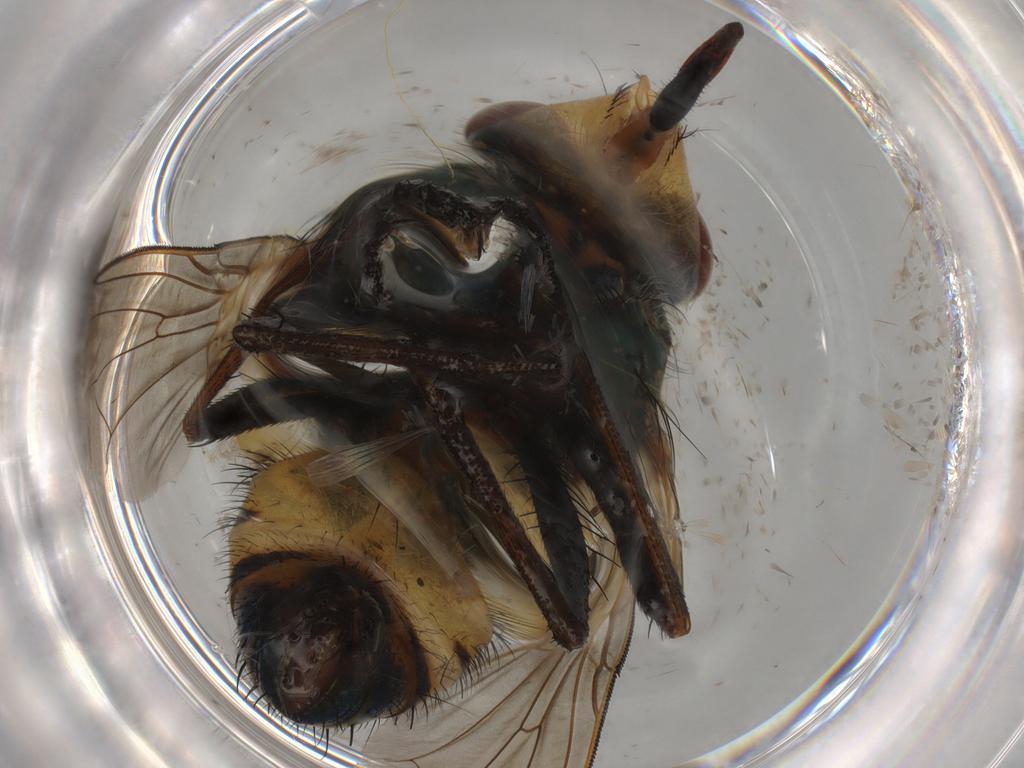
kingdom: Animalia
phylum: Arthropoda
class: Insecta
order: Diptera
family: Calliphoridae
